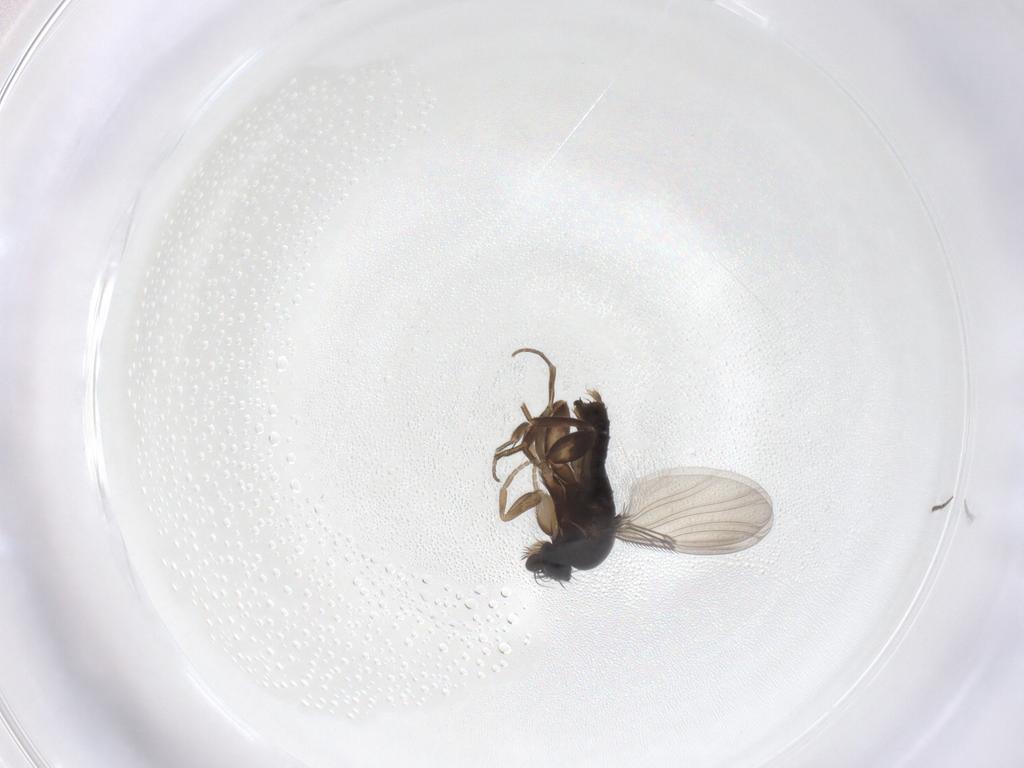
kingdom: Animalia
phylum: Arthropoda
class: Insecta
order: Diptera
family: Phoridae
